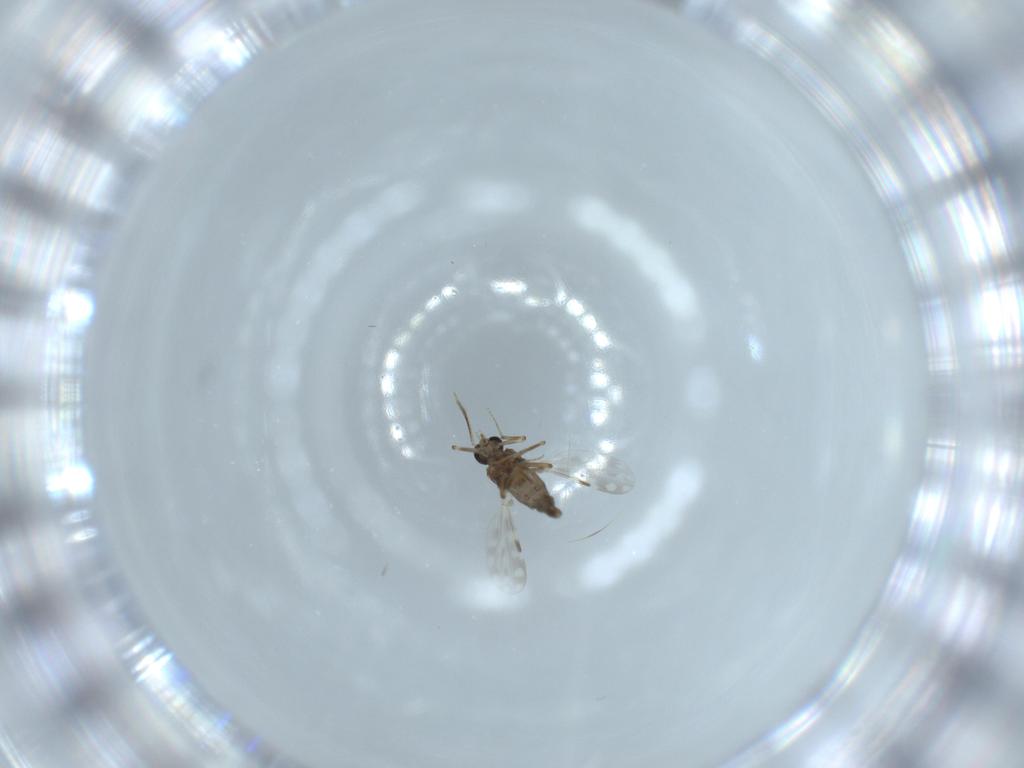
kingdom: Animalia
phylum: Arthropoda
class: Insecta
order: Diptera
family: Ceratopogonidae
